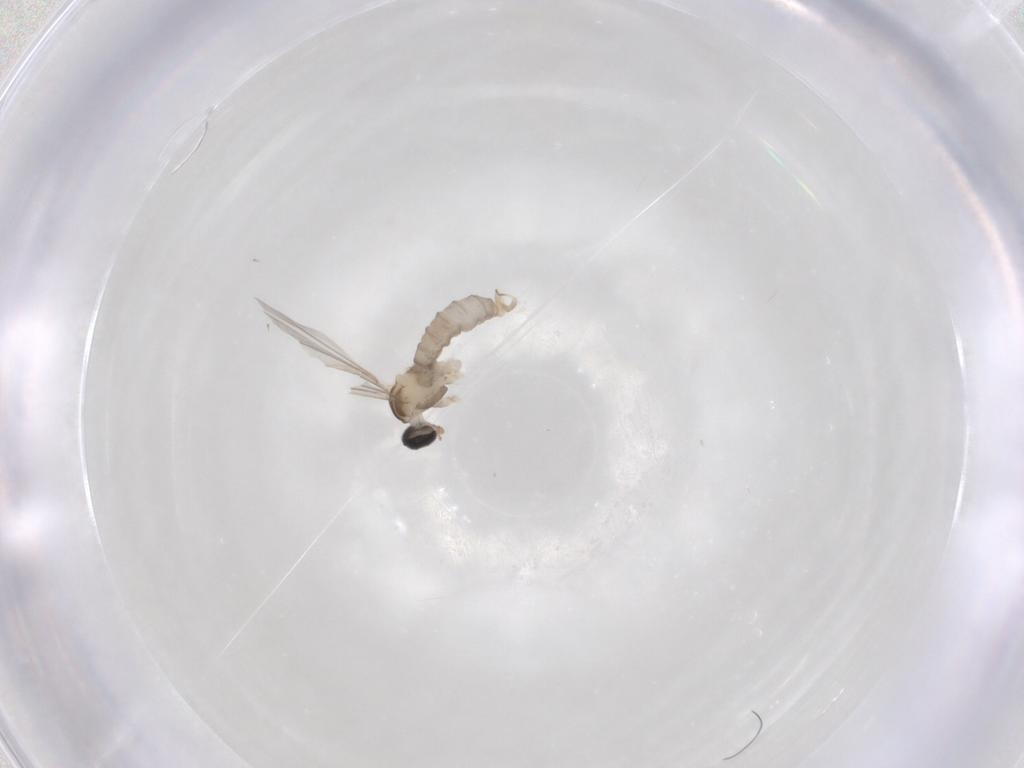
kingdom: Animalia
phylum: Arthropoda
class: Insecta
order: Diptera
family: Cecidomyiidae
